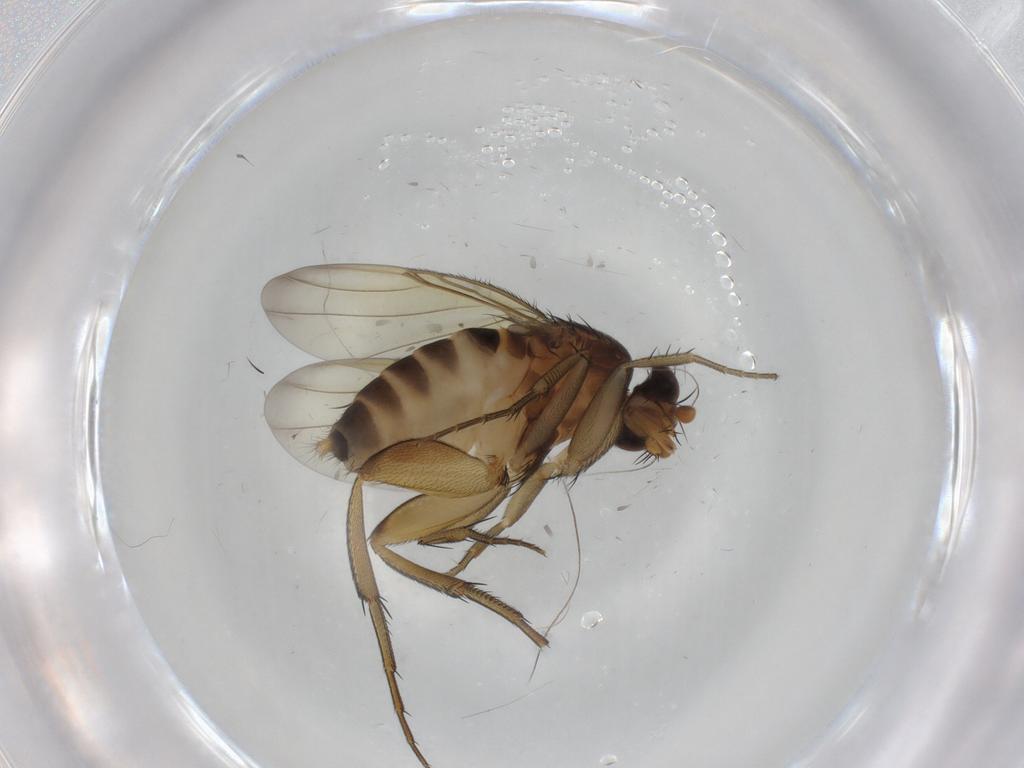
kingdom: Animalia
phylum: Arthropoda
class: Insecta
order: Diptera
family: Phoridae
